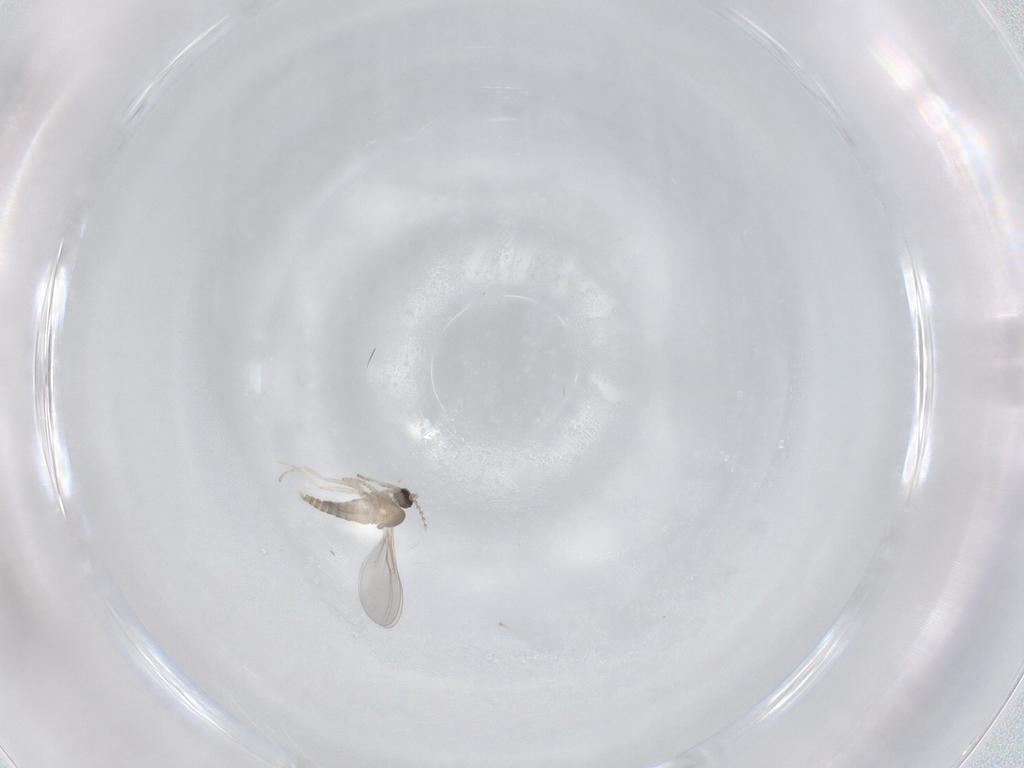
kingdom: Animalia
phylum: Arthropoda
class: Insecta
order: Diptera
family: Cecidomyiidae
